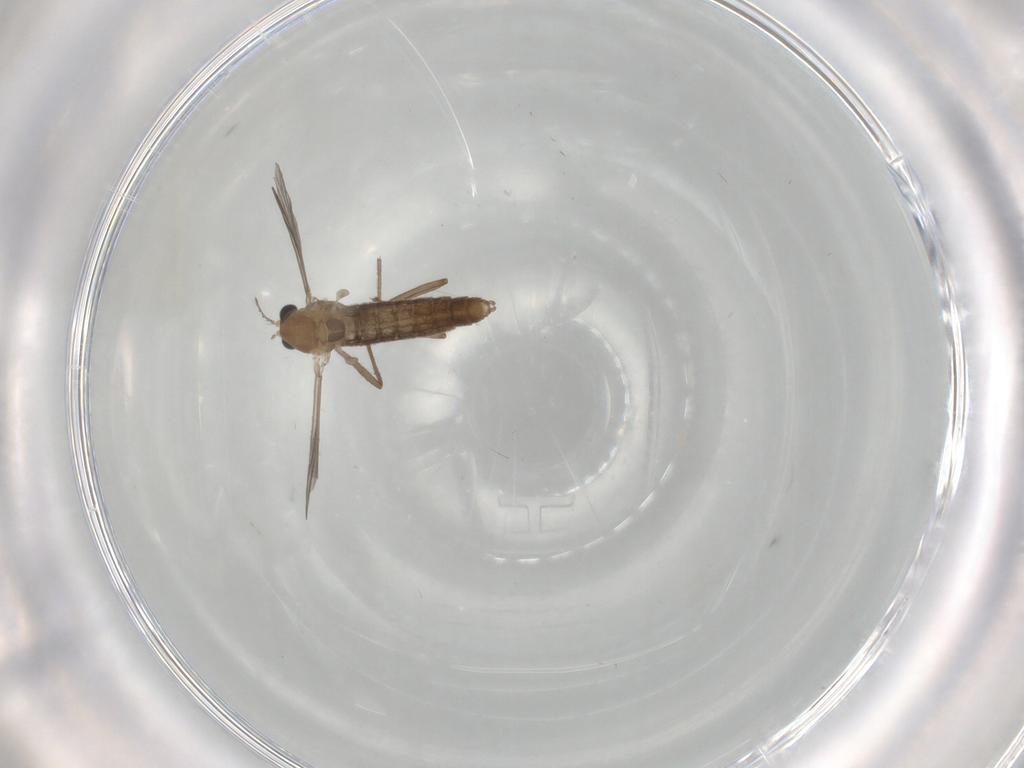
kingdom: Animalia
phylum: Arthropoda
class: Insecta
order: Diptera
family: Chironomidae
